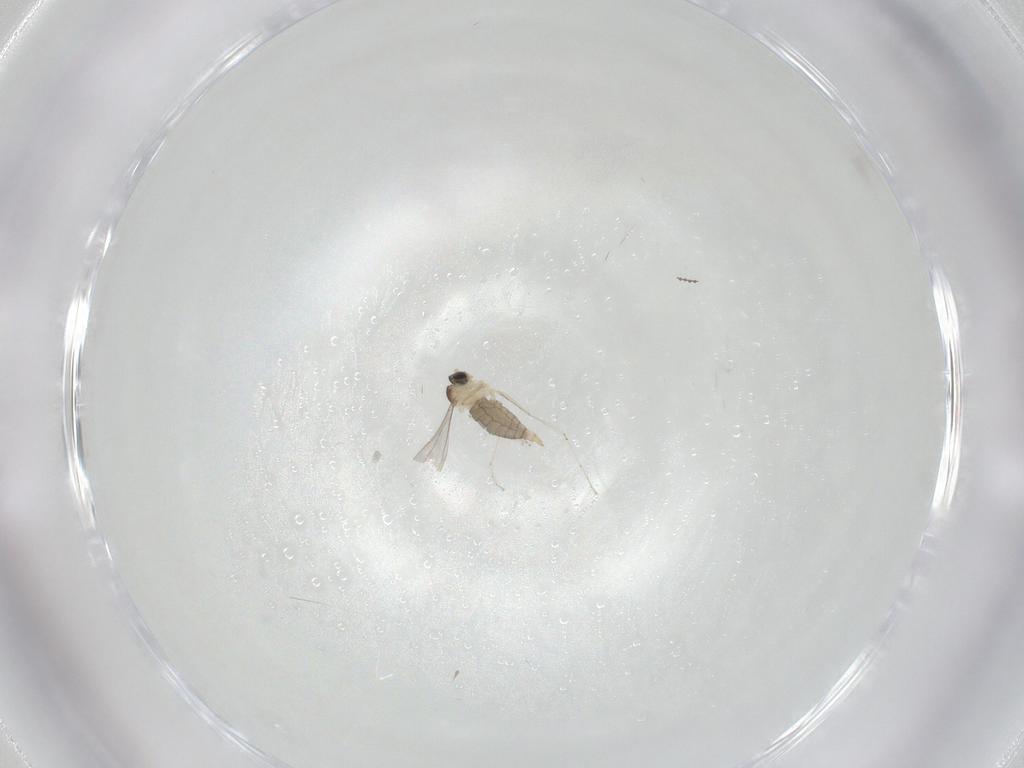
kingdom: Animalia
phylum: Arthropoda
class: Insecta
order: Diptera
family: Cecidomyiidae
